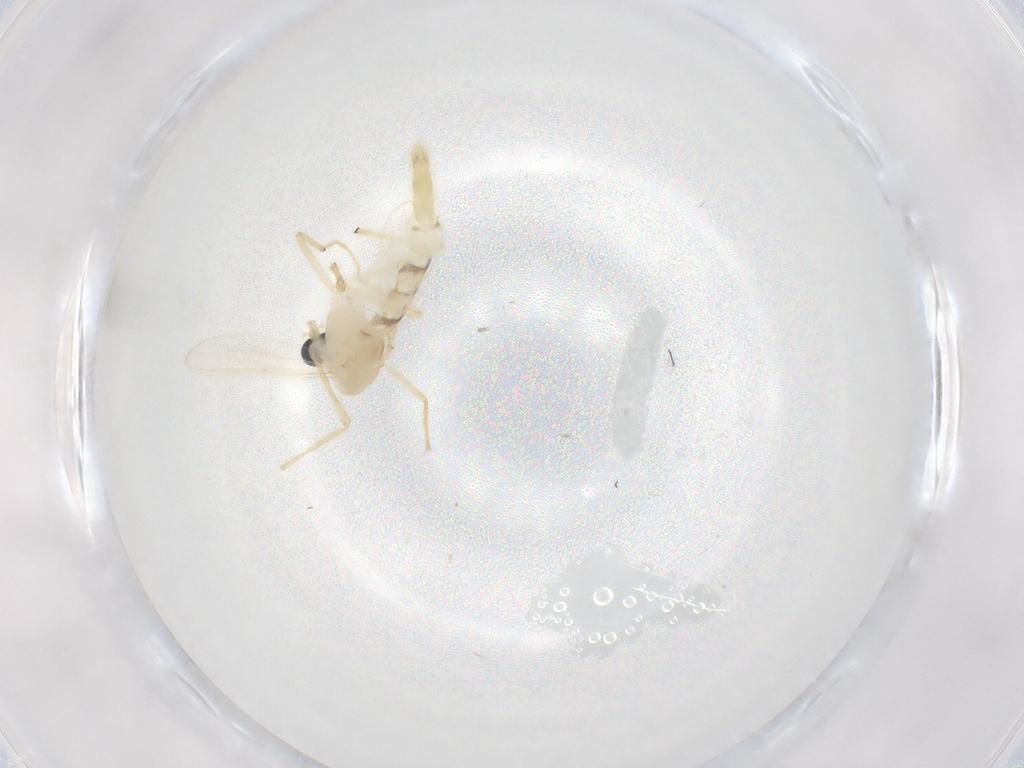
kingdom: Animalia
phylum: Arthropoda
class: Insecta
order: Diptera
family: Chironomidae
